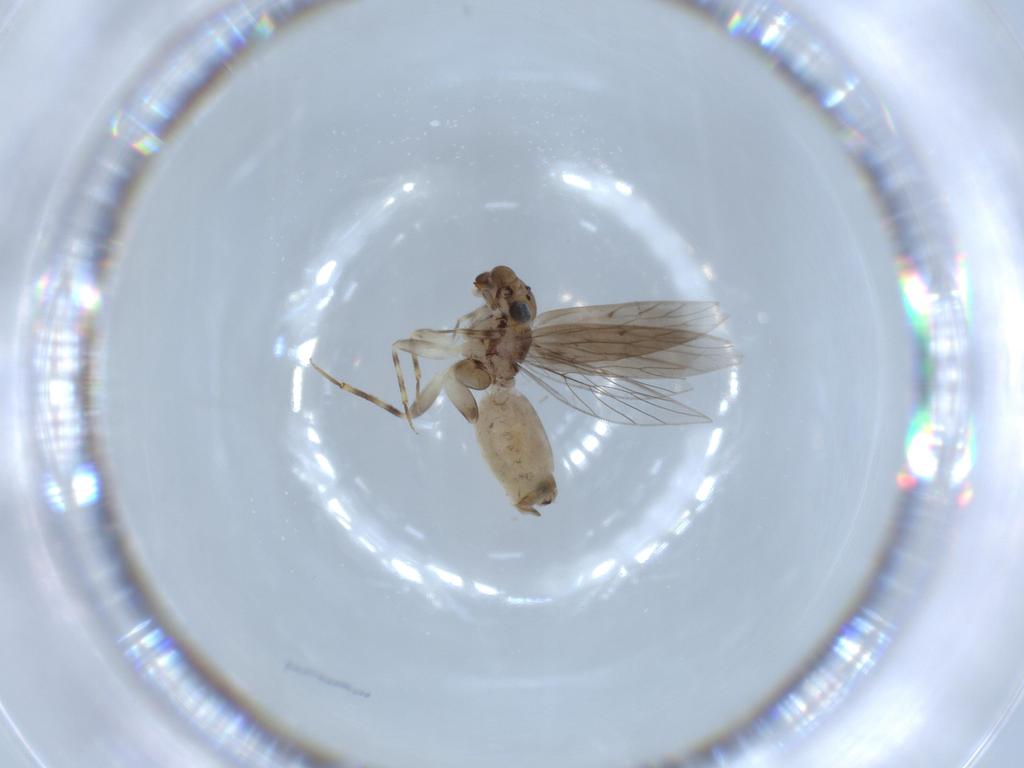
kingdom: Animalia
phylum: Arthropoda
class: Insecta
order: Psocodea
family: Lepidopsocidae
